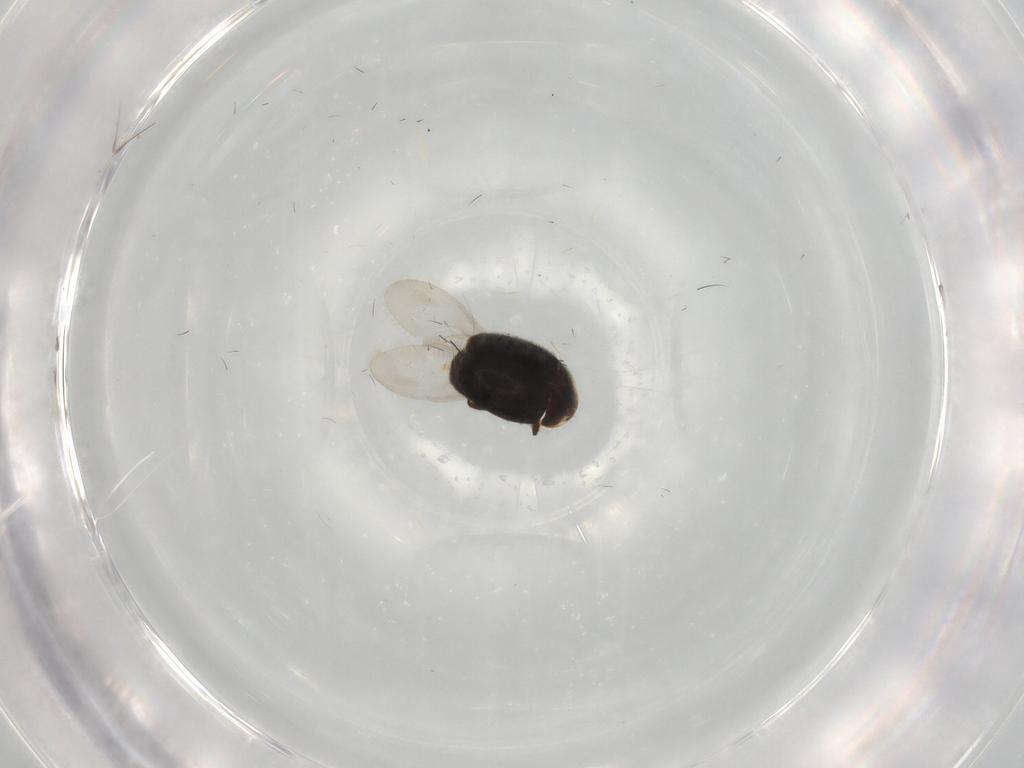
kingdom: Animalia
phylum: Arthropoda
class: Insecta
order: Coleoptera
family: Corylophidae
